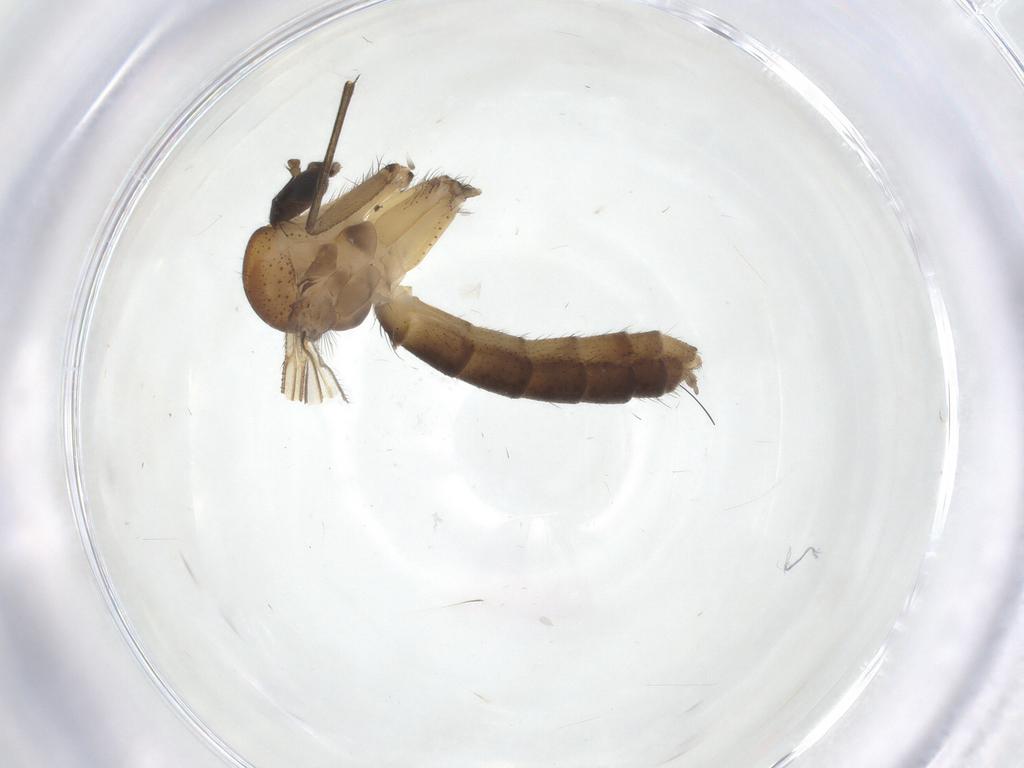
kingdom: Animalia
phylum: Arthropoda
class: Insecta
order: Diptera
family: Mycetophilidae
